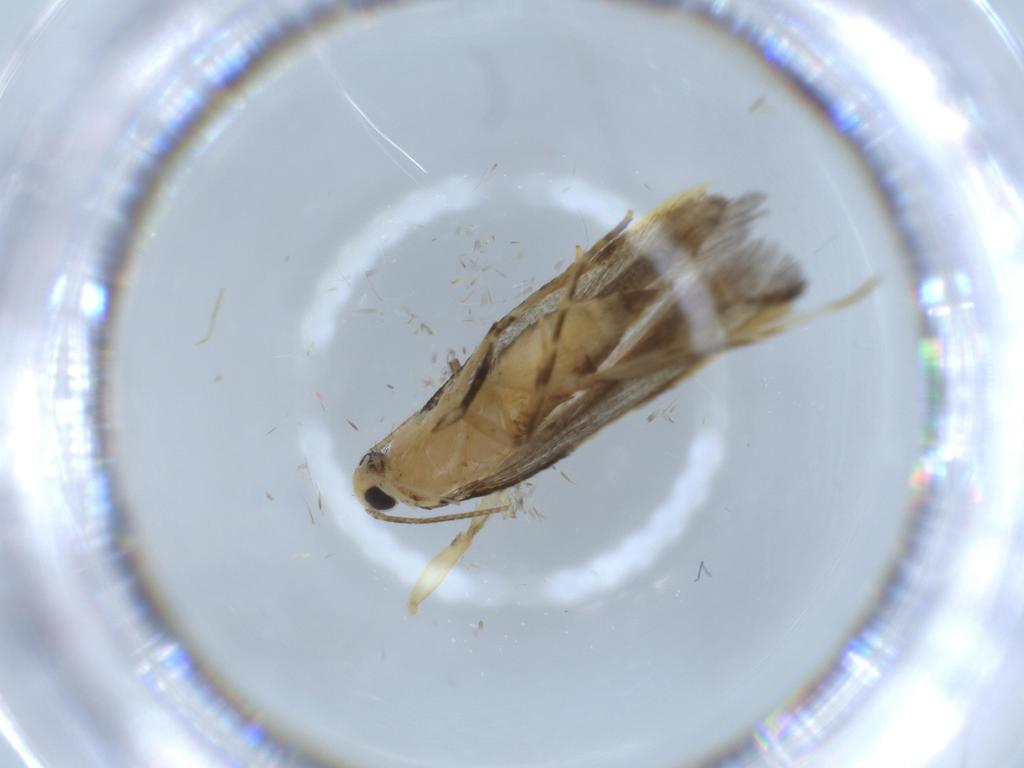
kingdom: Animalia
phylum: Arthropoda
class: Insecta
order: Lepidoptera
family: Autostichidae
